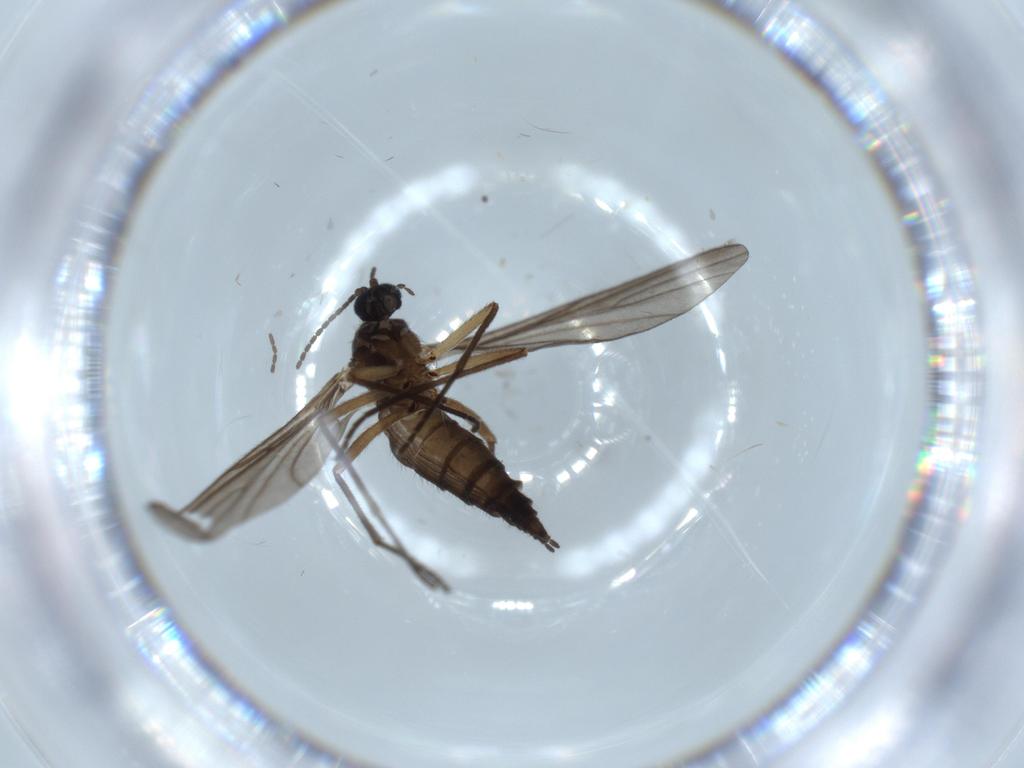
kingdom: Animalia
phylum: Arthropoda
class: Insecta
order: Diptera
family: Sciaridae
